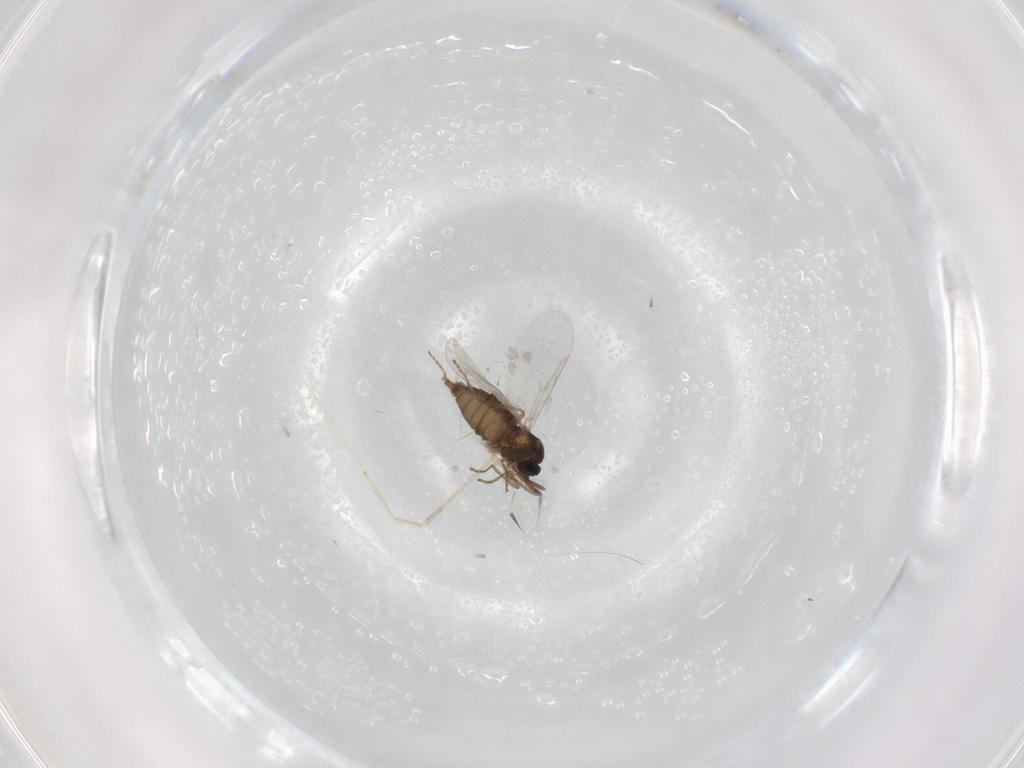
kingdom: Animalia
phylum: Arthropoda
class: Insecta
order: Diptera
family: Cecidomyiidae
